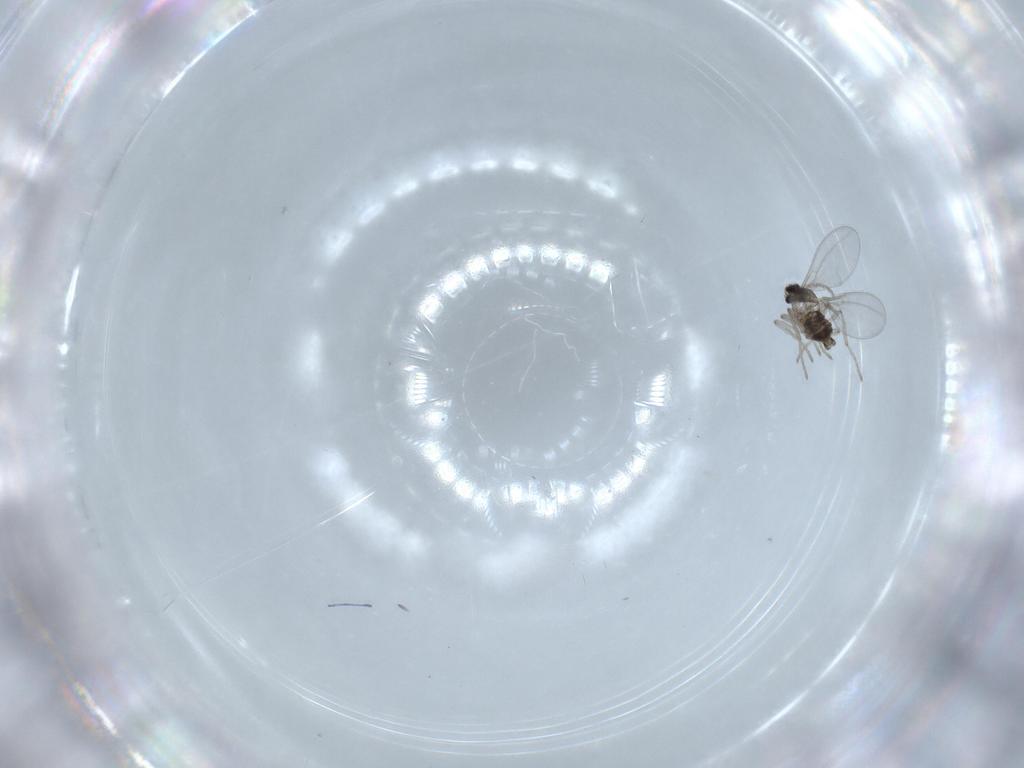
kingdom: Animalia
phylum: Arthropoda
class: Insecta
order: Diptera
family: Cecidomyiidae
